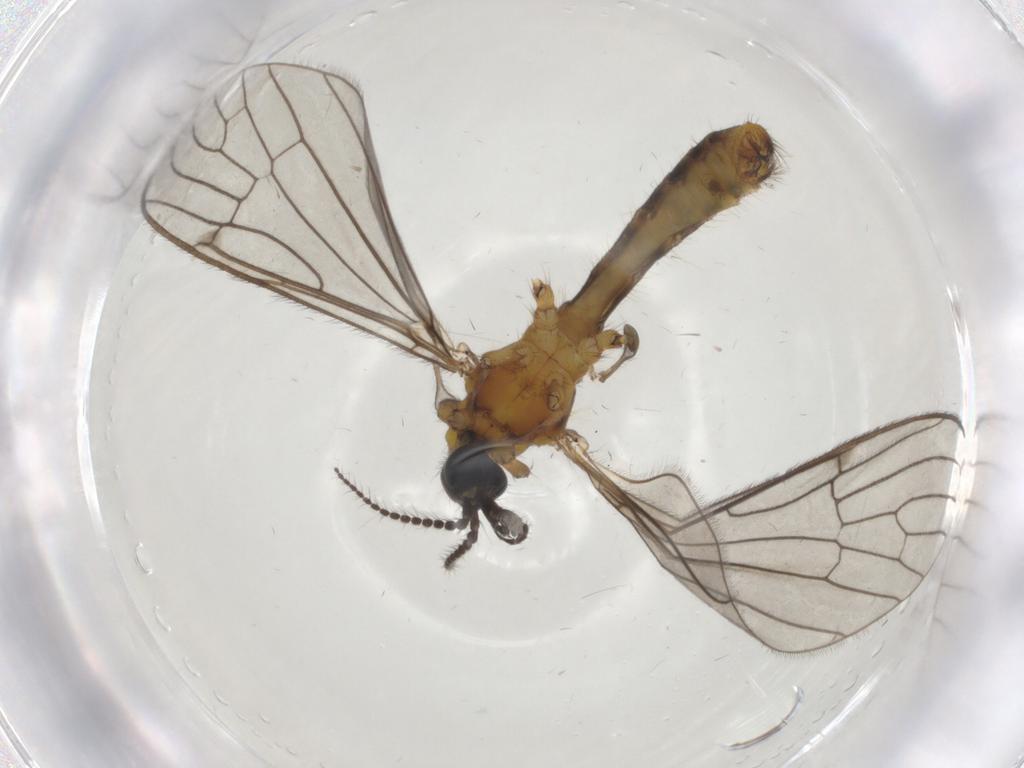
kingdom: Animalia
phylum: Arthropoda
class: Insecta
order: Diptera
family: Limoniidae
